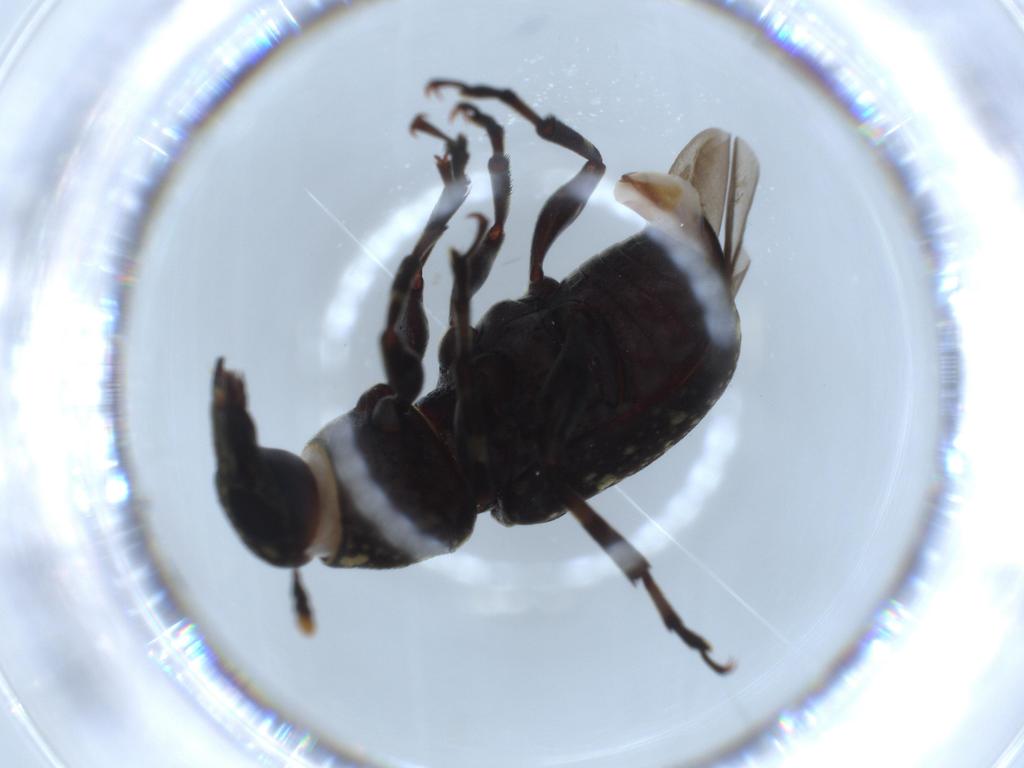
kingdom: Animalia
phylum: Arthropoda
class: Insecta
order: Coleoptera
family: Anthribidae
